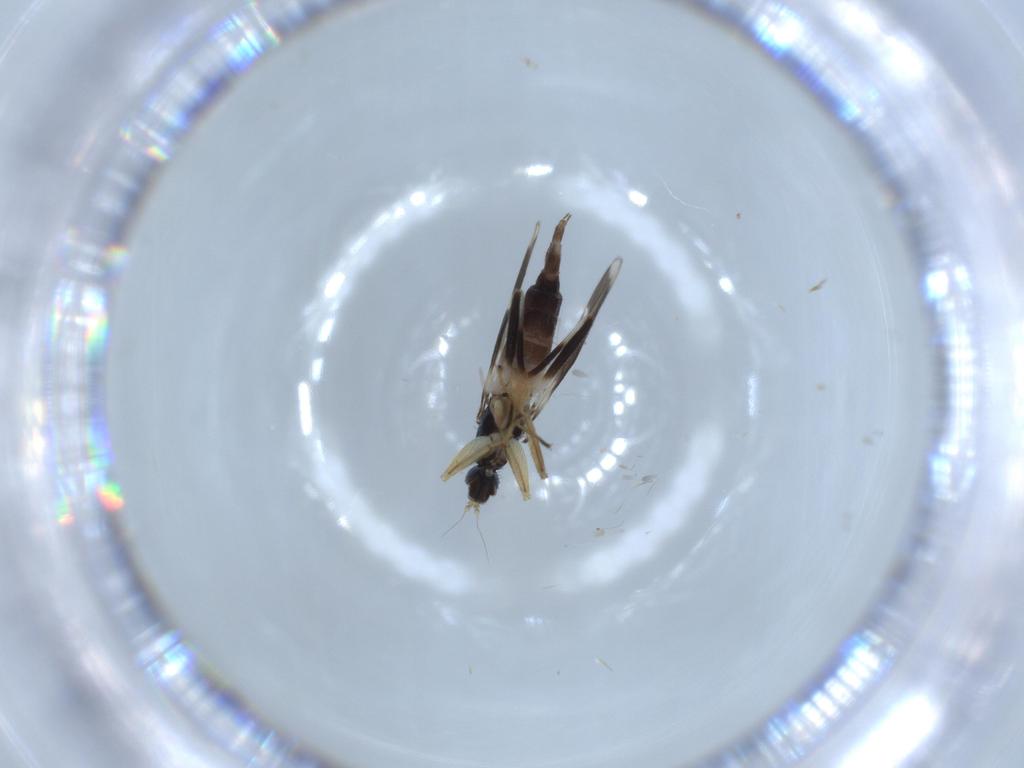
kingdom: Animalia
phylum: Arthropoda
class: Insecta
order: Diptera
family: Hybotidae
